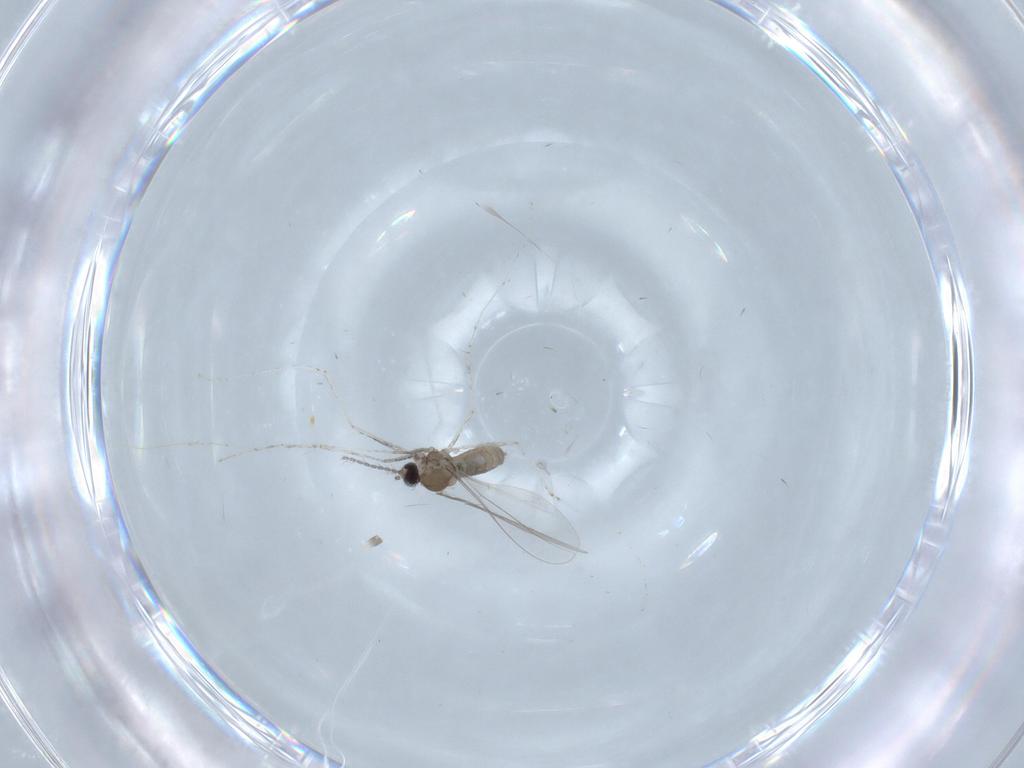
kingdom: Animalia
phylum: Arthropoda
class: Insecta
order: Diptera
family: Cecidomyiidae
